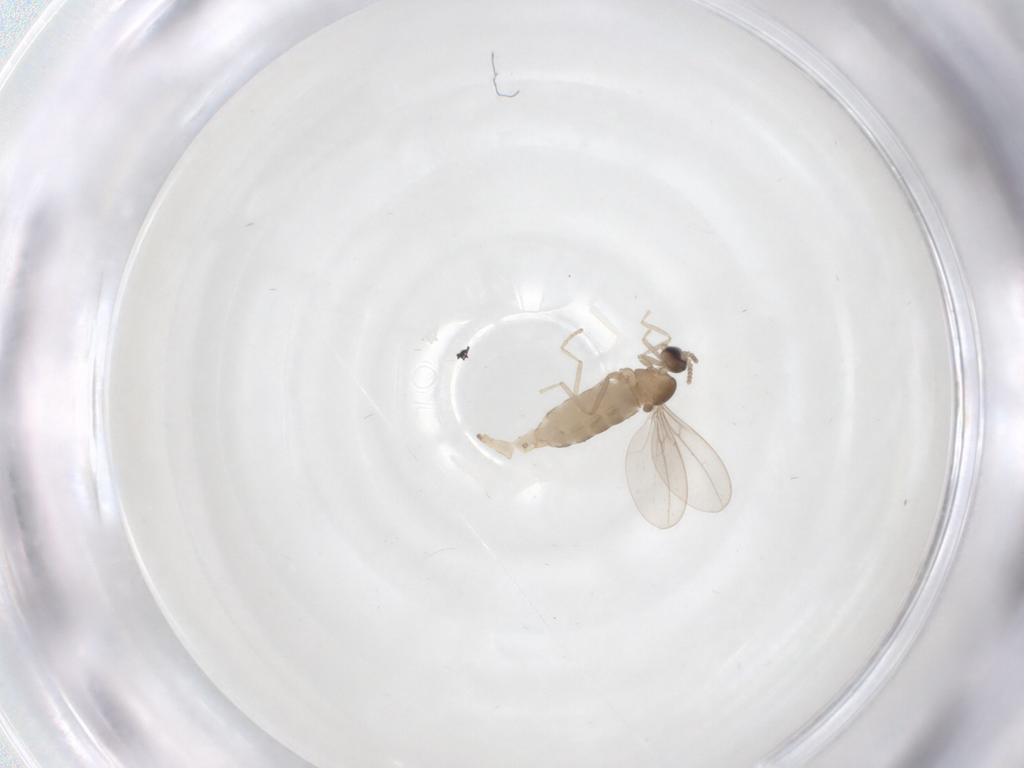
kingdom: Animalia
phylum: Arthropoda
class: Insecta
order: Diptera
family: Cecidomyiidae
